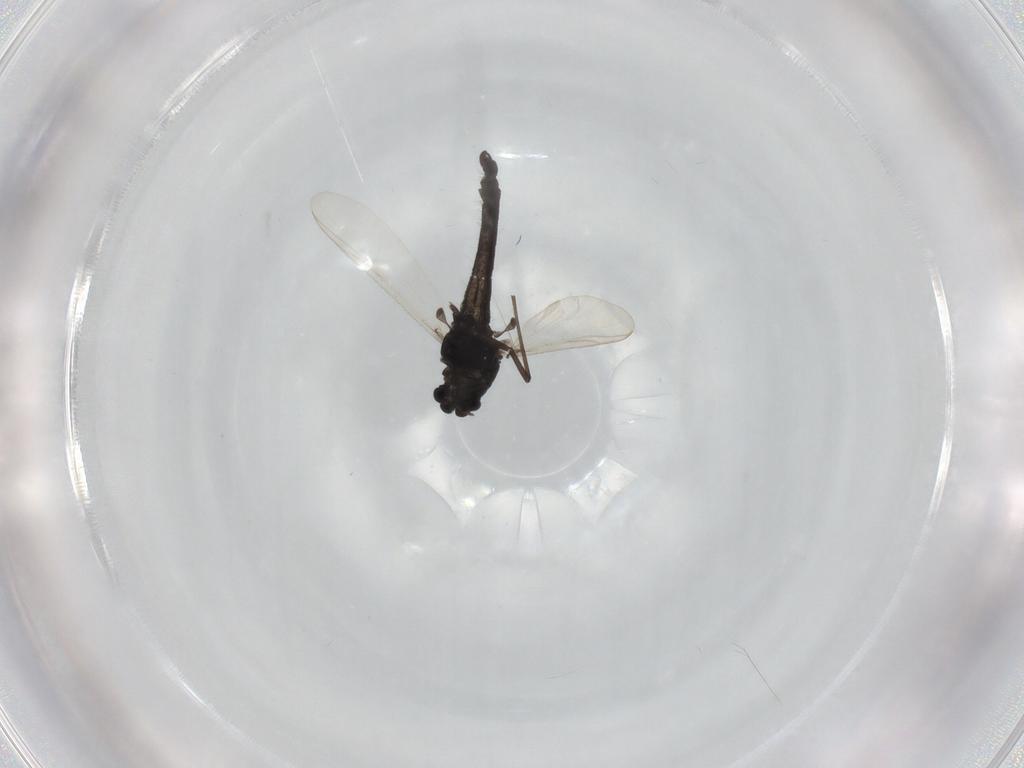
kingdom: Animalia
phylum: Arthropoda
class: Insecta
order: Diptera
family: Chironomidae
